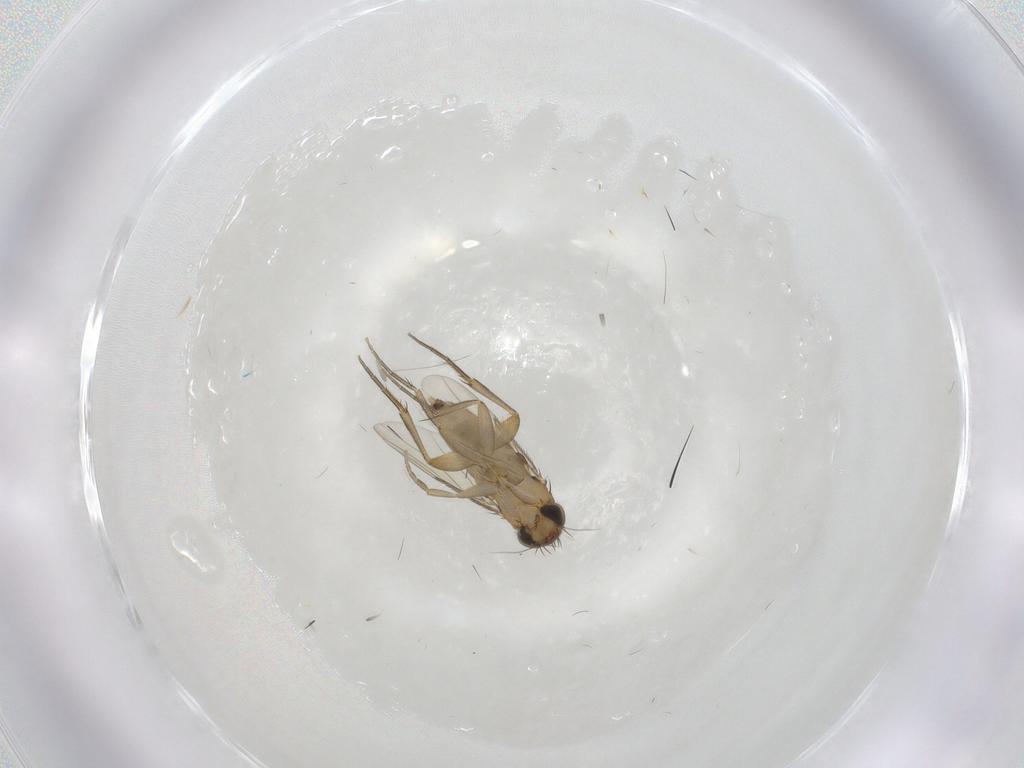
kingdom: Animalia
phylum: Arthropoda
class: Insecta
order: Diptera
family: Phoridae
